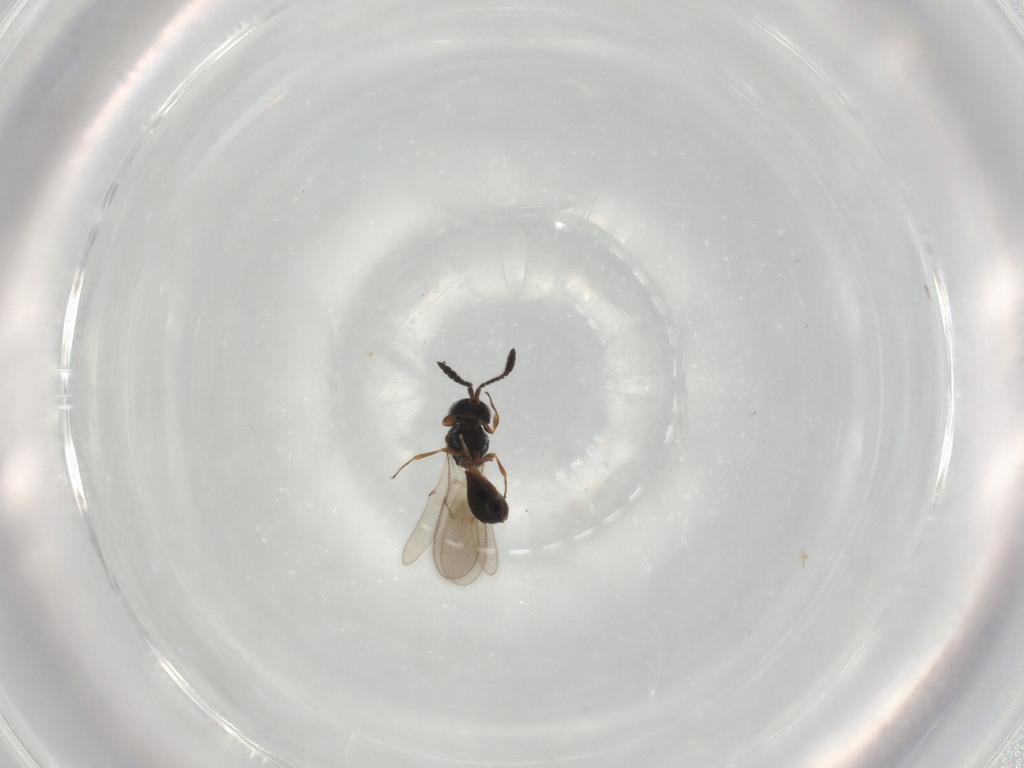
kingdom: Animalia
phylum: Arthropoda
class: Insecta
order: Hymenoptera
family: Scelionidae
